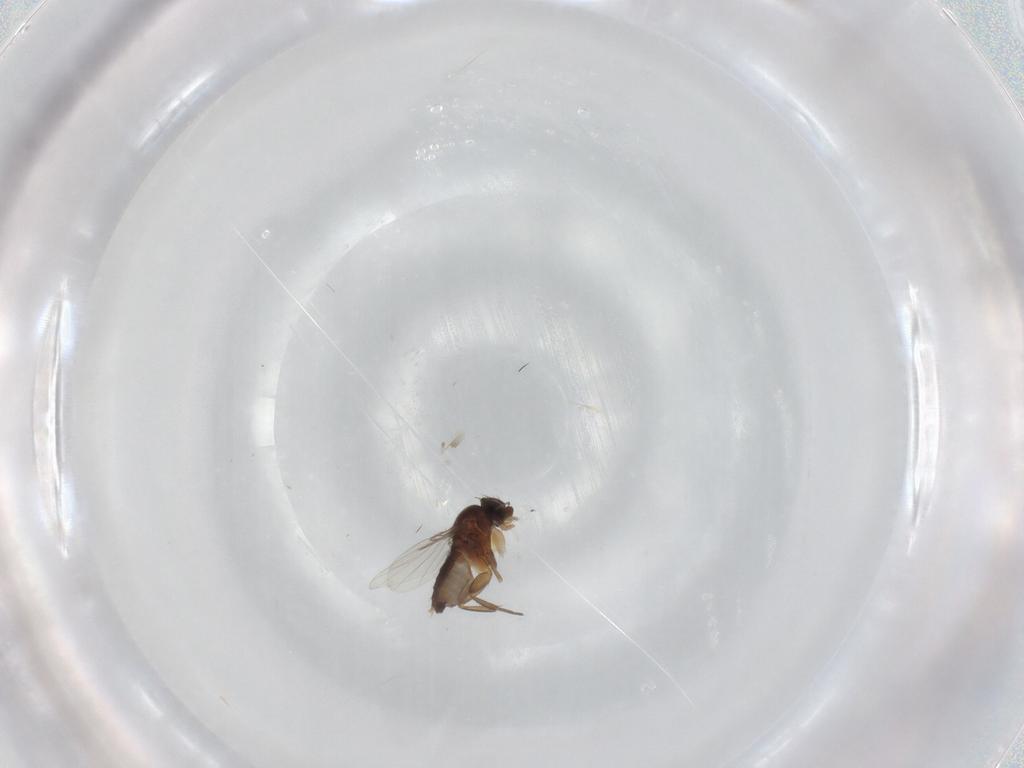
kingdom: Animalia
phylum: Arthropoda
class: Insecta
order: Diptera
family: Phoridae
